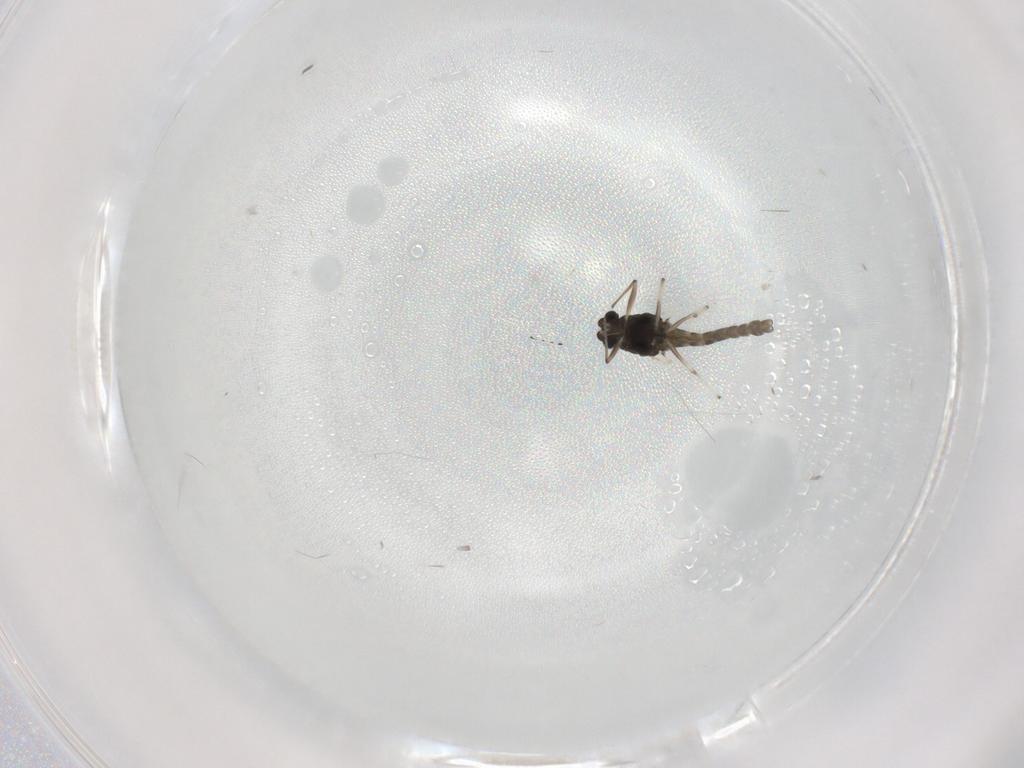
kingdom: Animalia
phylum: Arthropoda
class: Insecta
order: Diptera
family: Chironomidae
